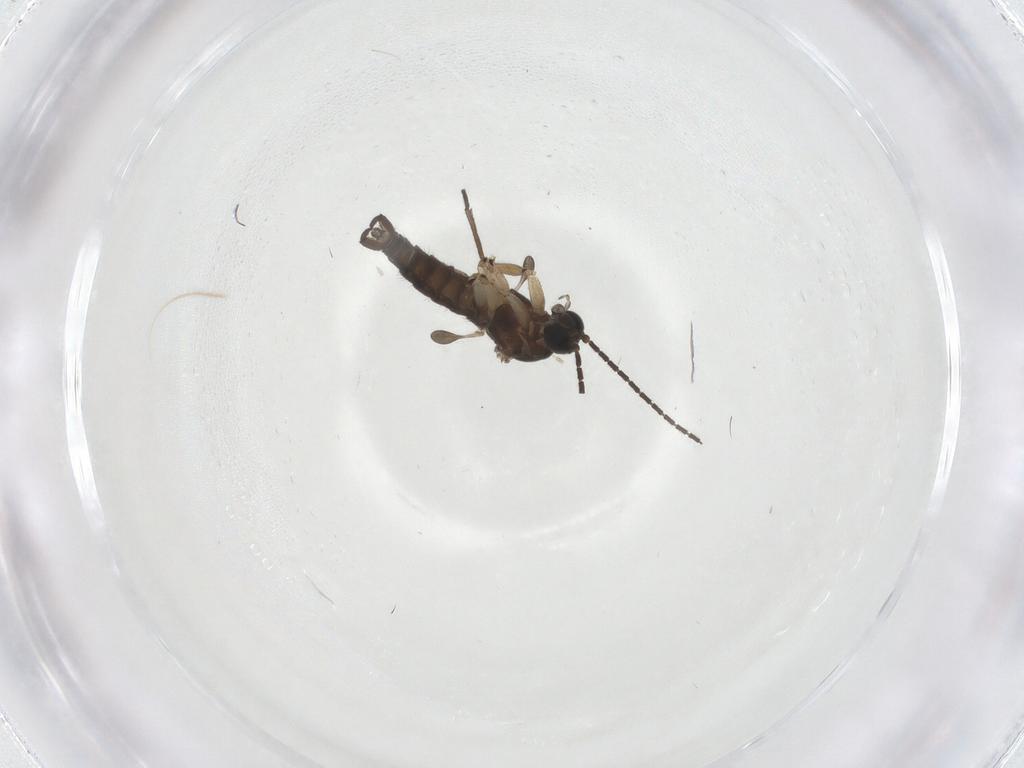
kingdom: Animalia
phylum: Arthropoda
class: Insecta
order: Diptera
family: Sciaridae
